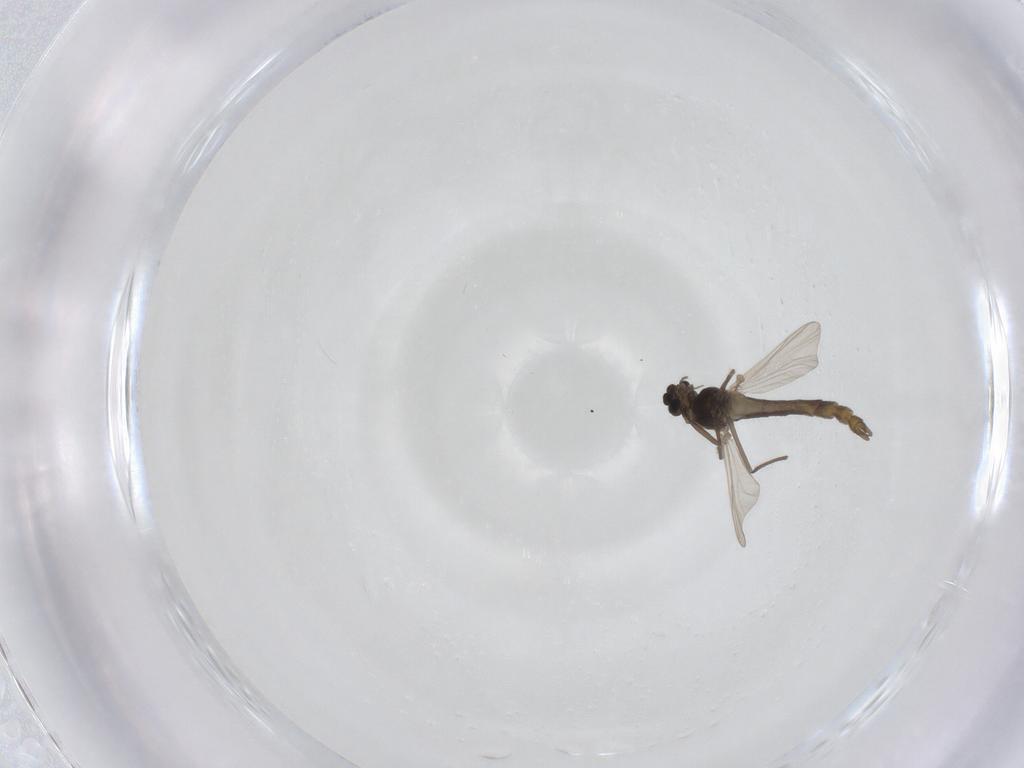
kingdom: Animalia
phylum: Arthropoda
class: Insecta
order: Diptera
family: Chironomidae
